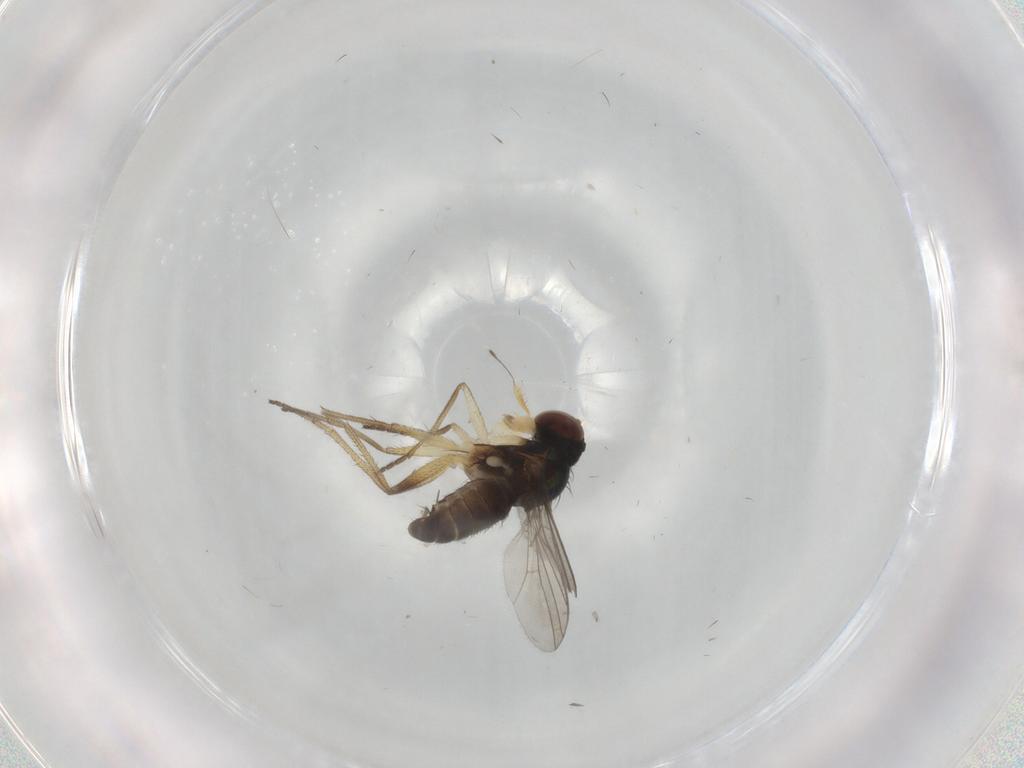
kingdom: Animalia
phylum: Arthropoda
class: Insecta
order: Diptera
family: Dolichopodidae
